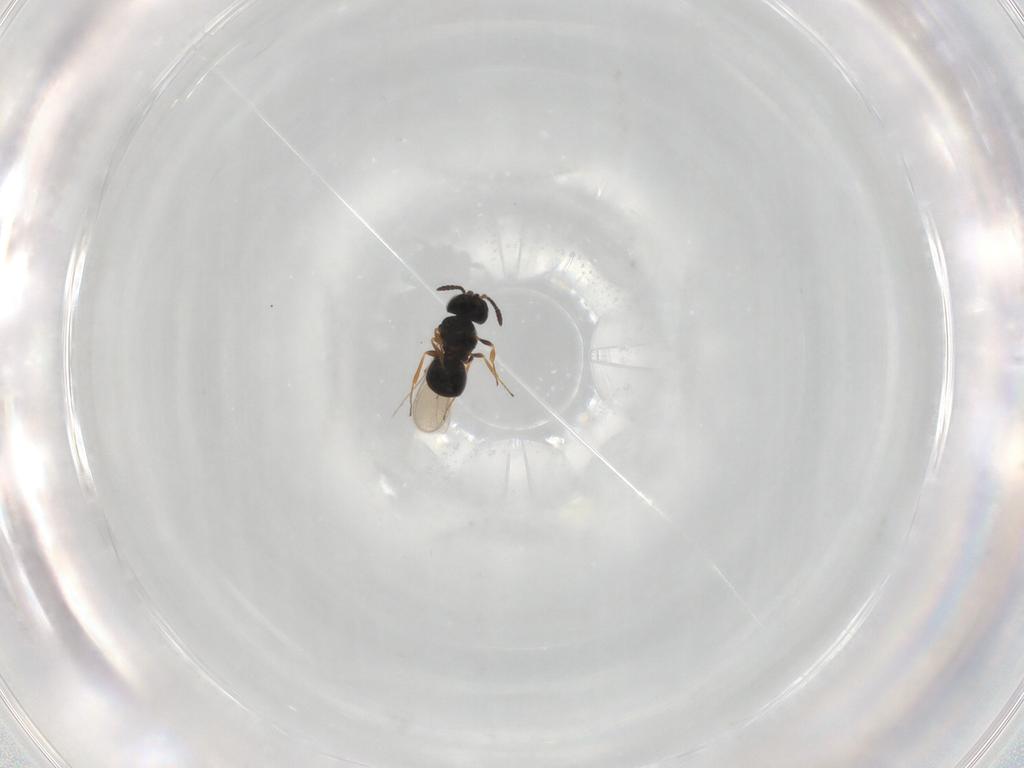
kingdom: Animalia
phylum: Arthropoda
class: Insecta
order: Hymenoptera
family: Scelionidae
